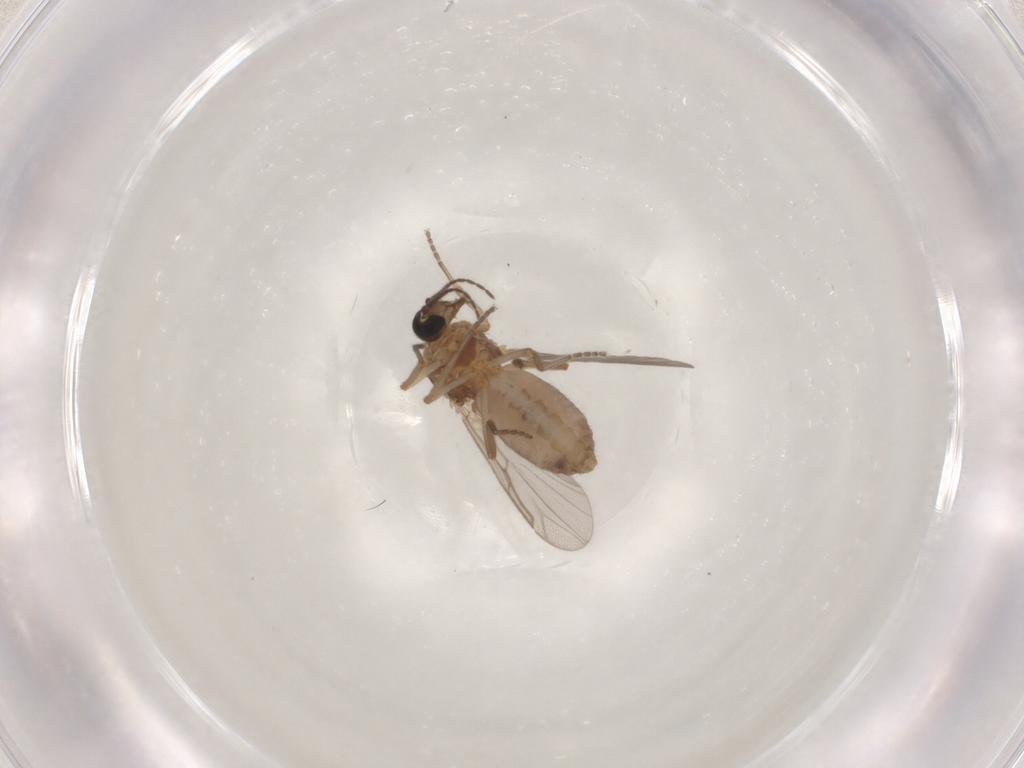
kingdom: Animalia
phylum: Arthropoda
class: Insecta
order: Diptera
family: Ceratopogonidae
